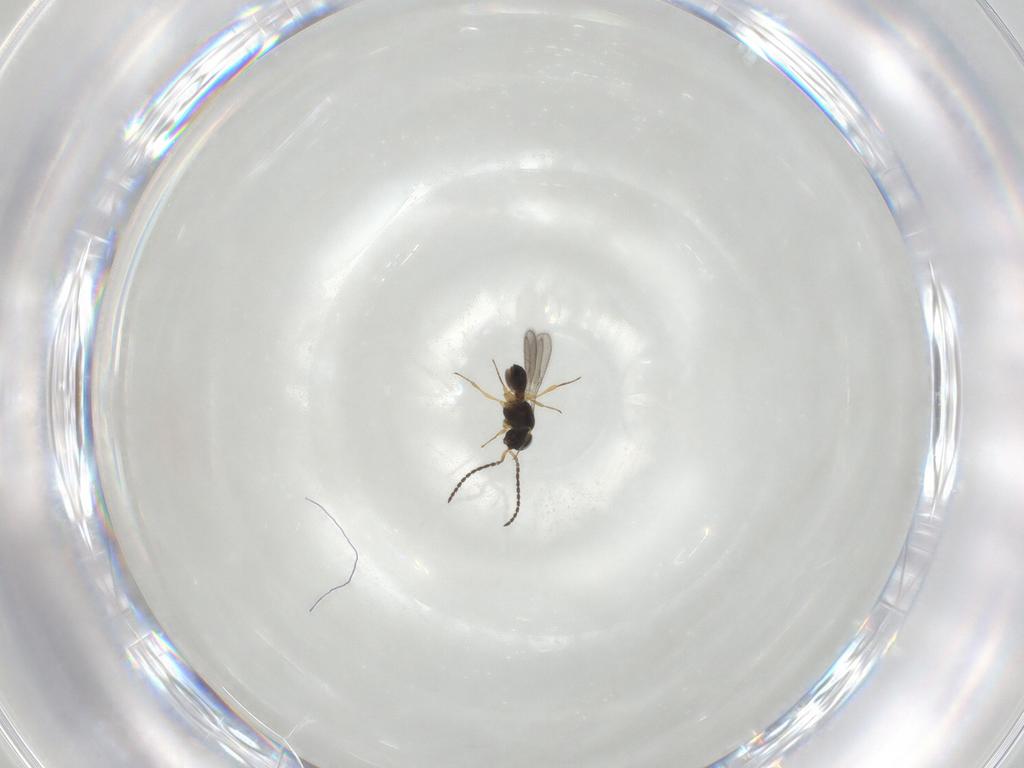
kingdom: Animalia
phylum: Arthropoda
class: Insecta
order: Hymenoptera
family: Scelionidae
